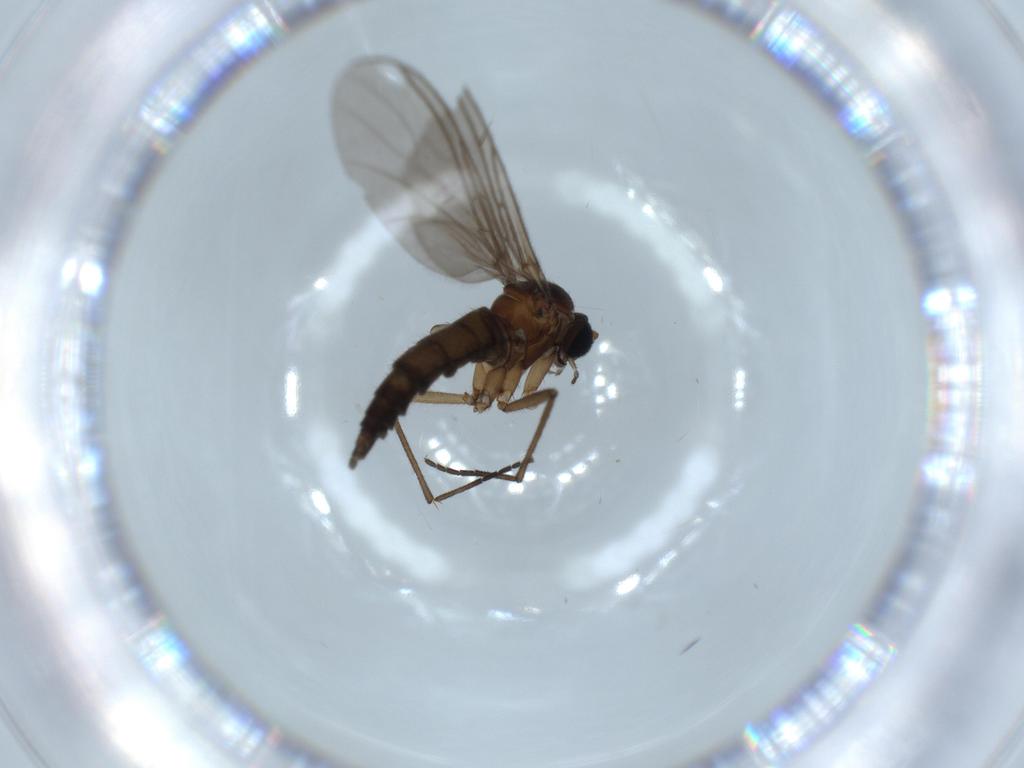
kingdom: Animalia
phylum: Arthropoda
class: Insecta
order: Diptera
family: Sciaridae
